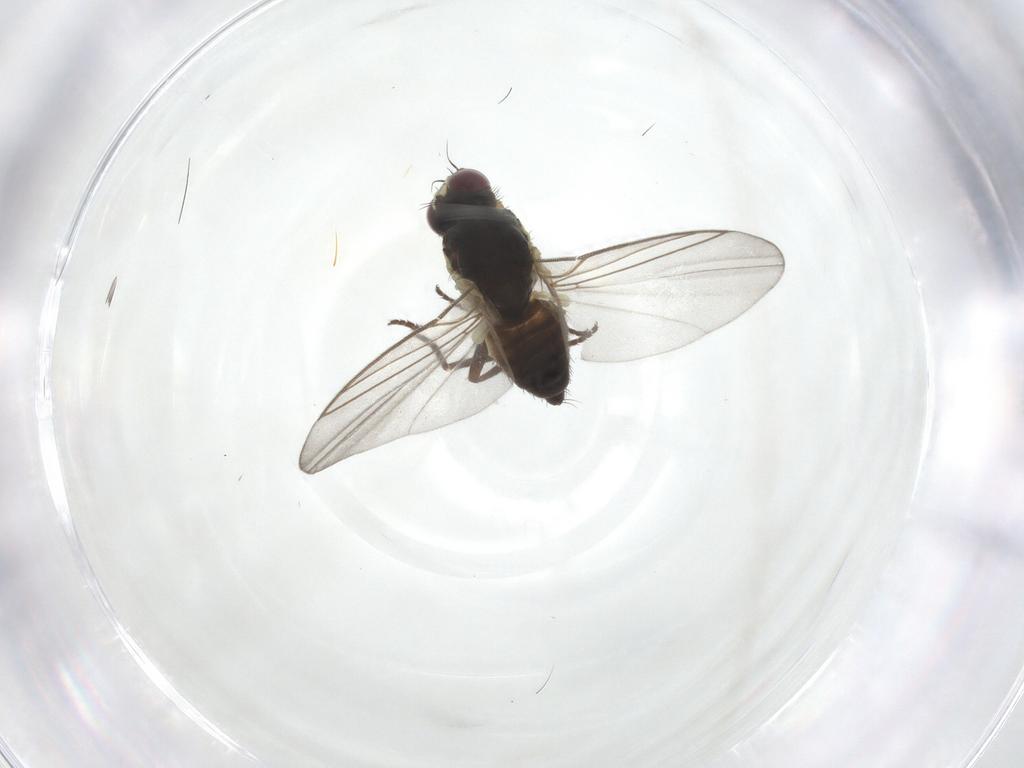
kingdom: Animalia
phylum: Arthropoda
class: Insecta
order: Diptera
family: Agromyzidae
